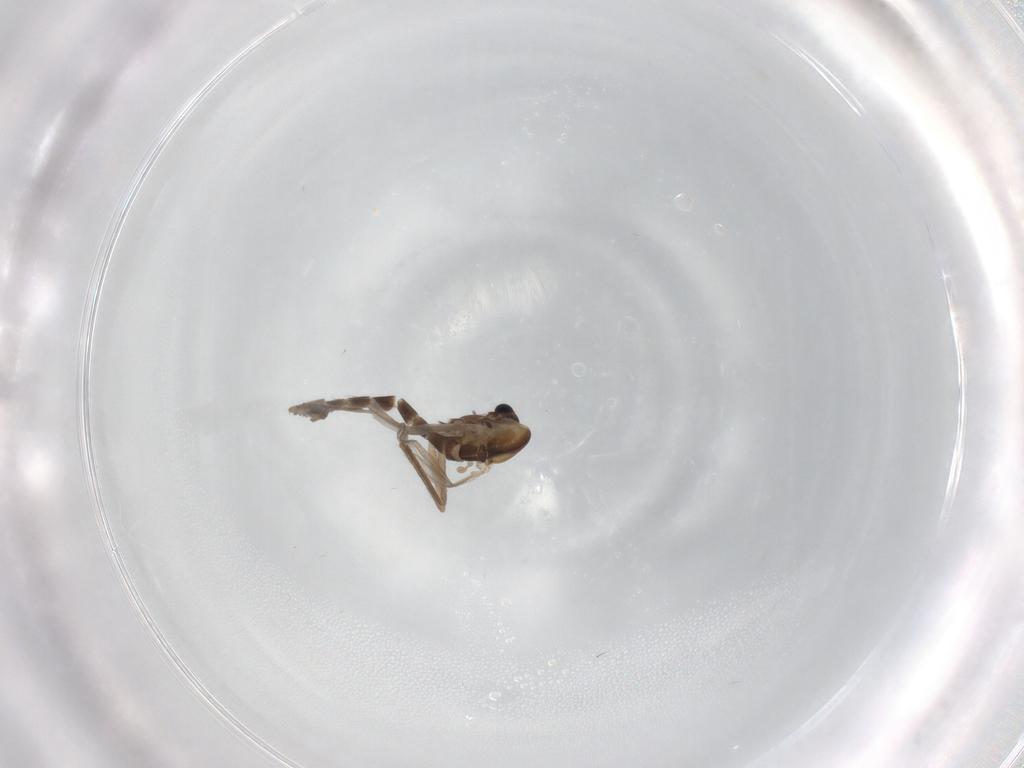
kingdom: Animalia
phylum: Arthropoda
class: Insecta
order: Diptera
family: Chironomidae
